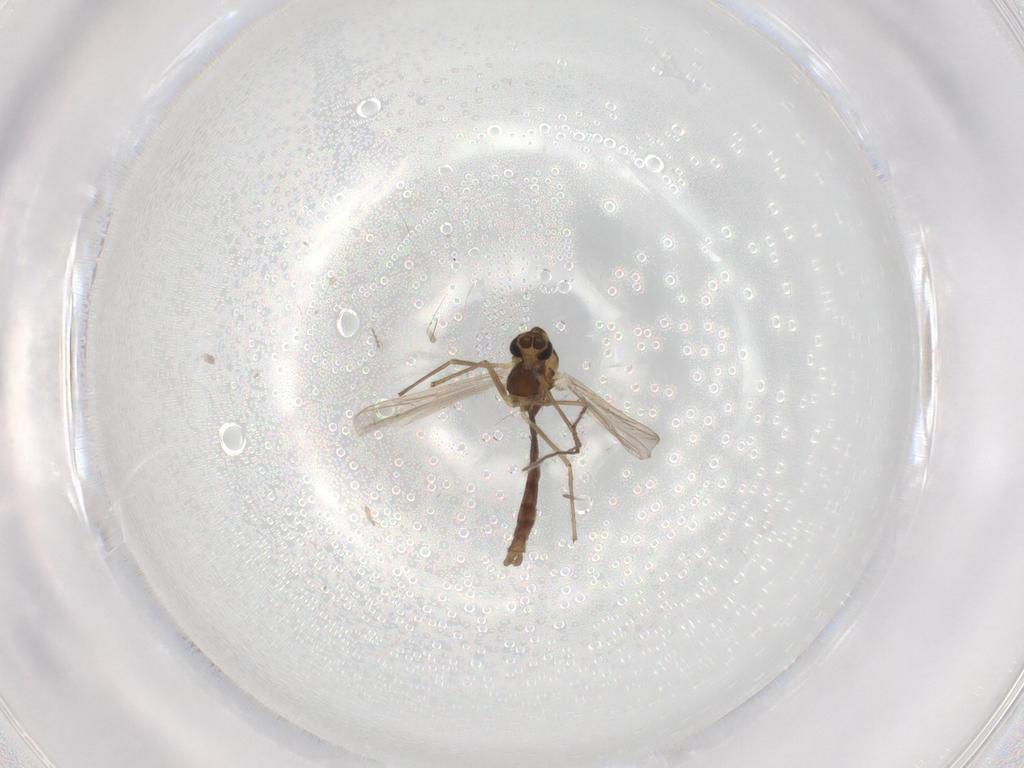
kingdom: Animalia
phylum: Arthropoda
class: Insecta
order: Diptera
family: Chironomidae
